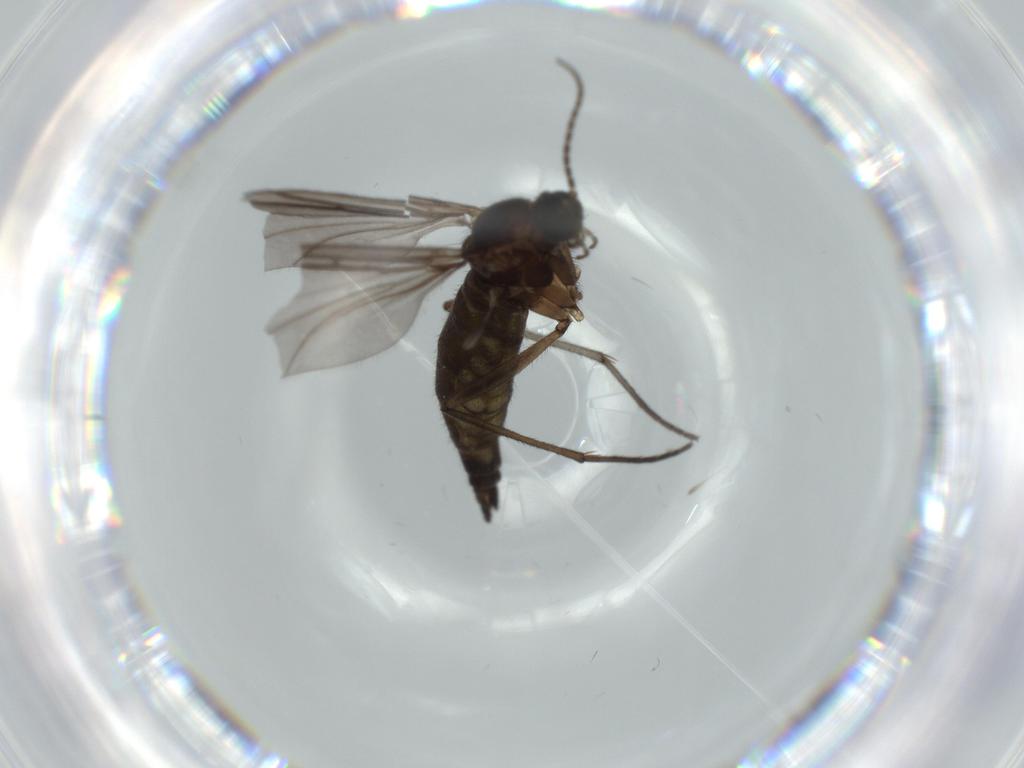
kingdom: Animalia
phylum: Arthropoda
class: Insecta
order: Diptera
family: Sciaridae
